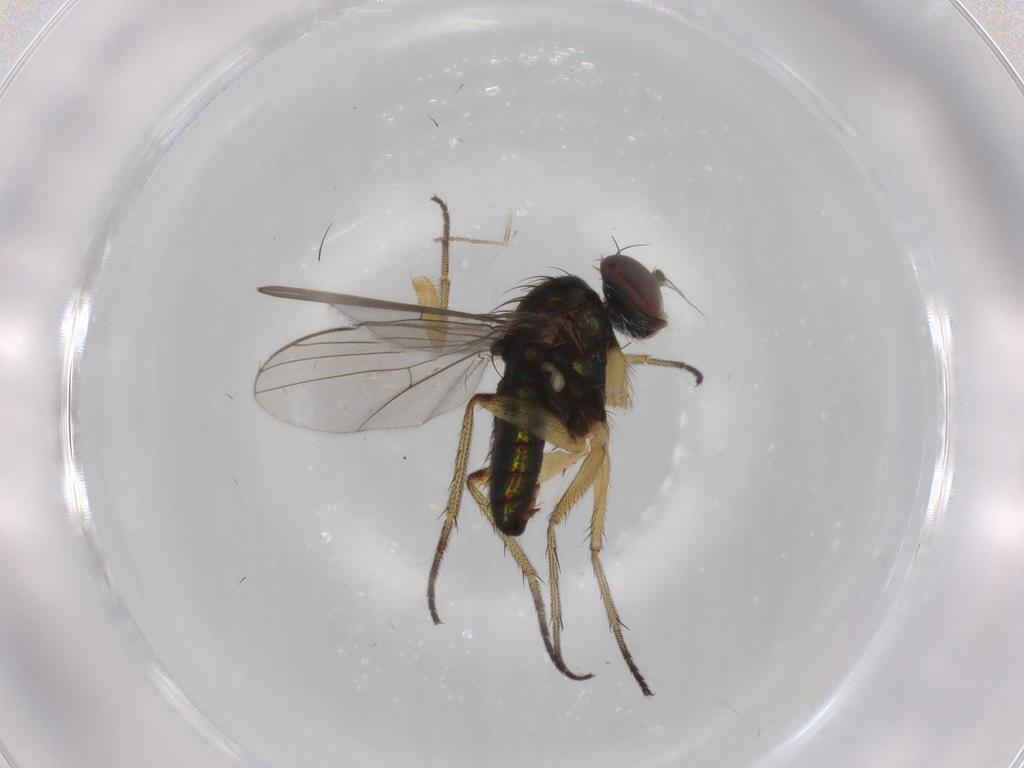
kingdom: Animalia
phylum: Arthropoda
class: Insecta
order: Diptera
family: Dolichopodidae
